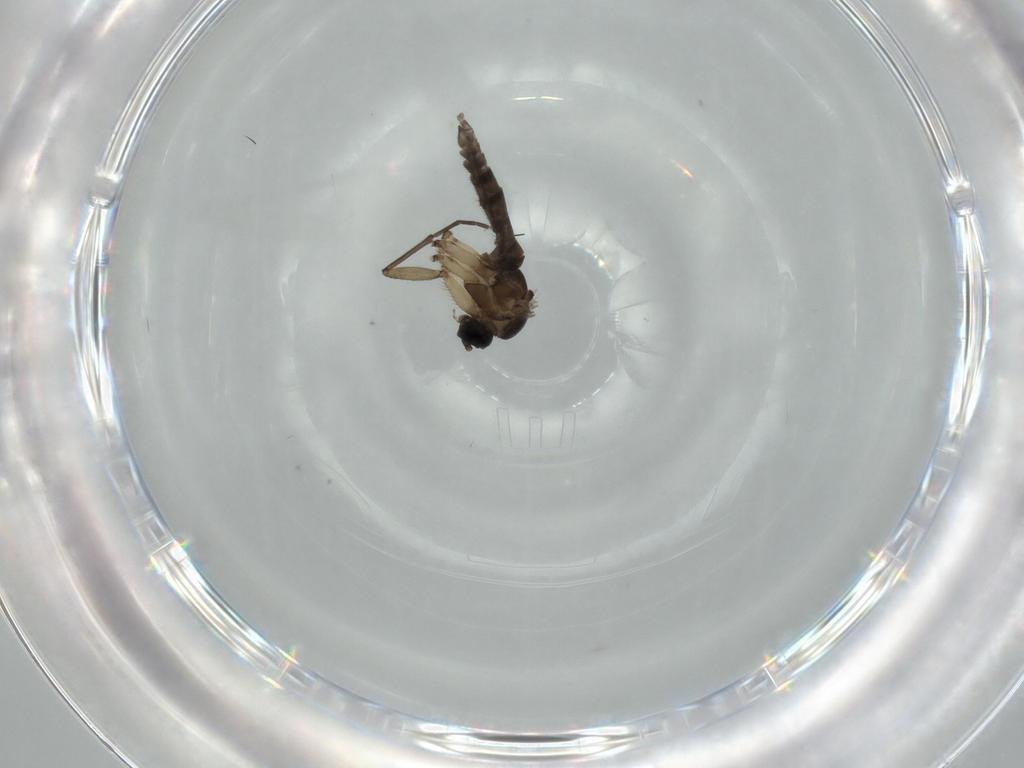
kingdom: Animalia
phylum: Arthropoda
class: Insecta
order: Diptera
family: Sciaridae
